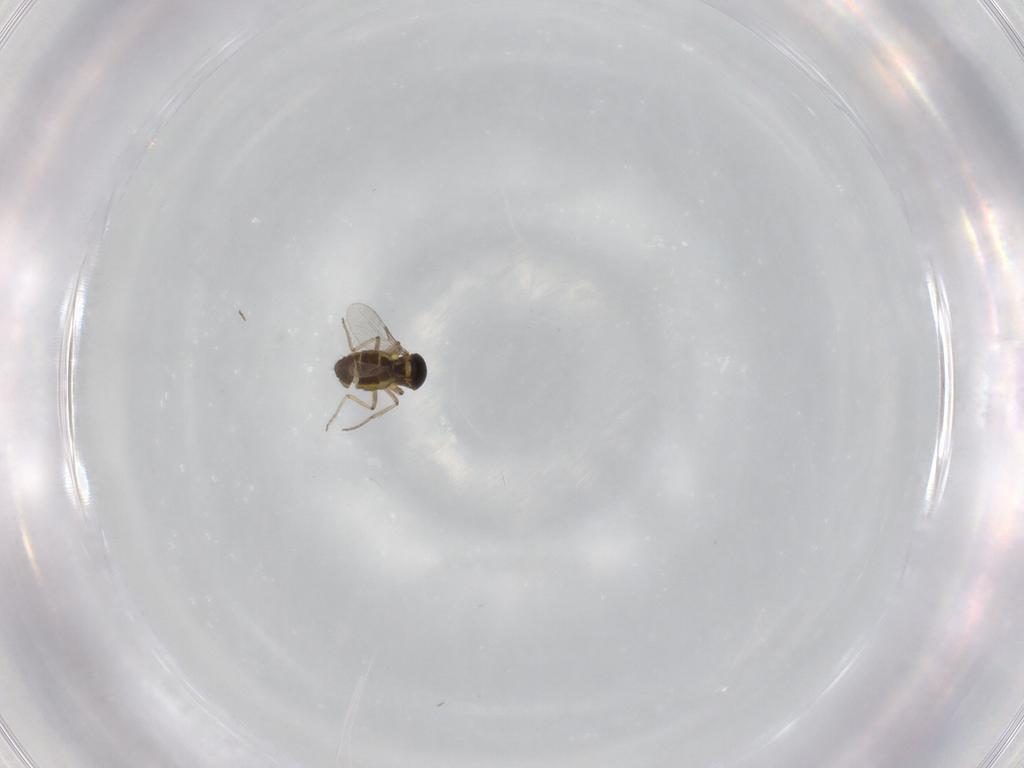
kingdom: Animalia
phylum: Arthropoda
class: Insecta
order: Diptera
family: Ceratopogonidae
